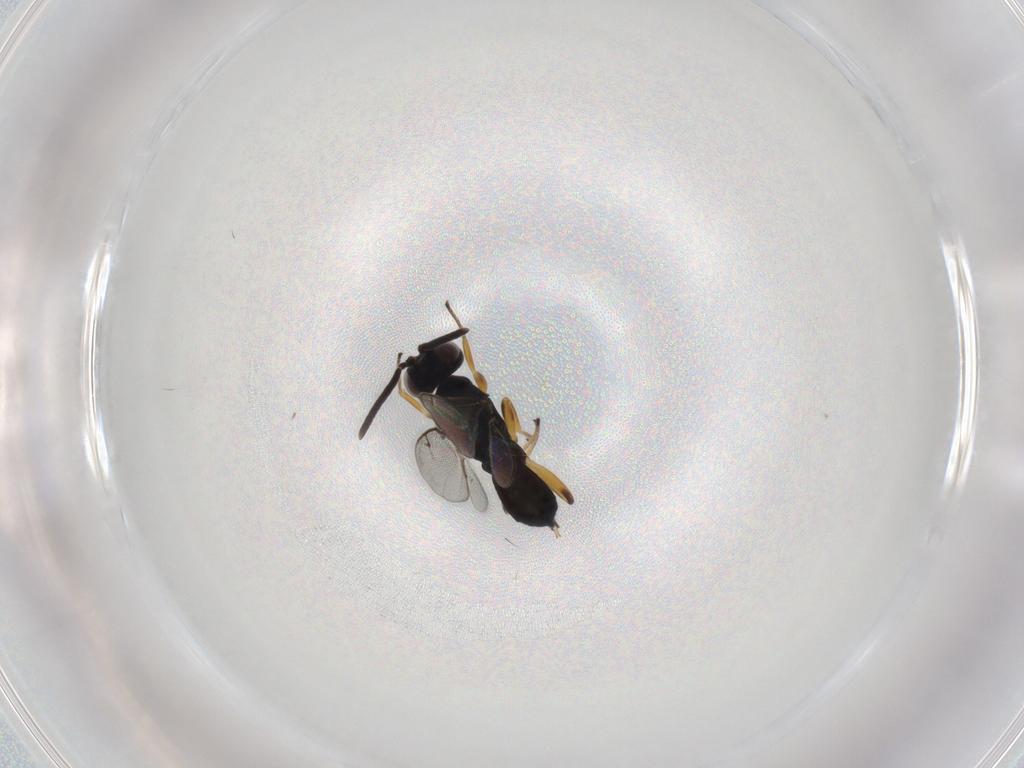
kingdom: Animalia
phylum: Arthropoda
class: Insecta
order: Hymenoptera
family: Eupelmidae
